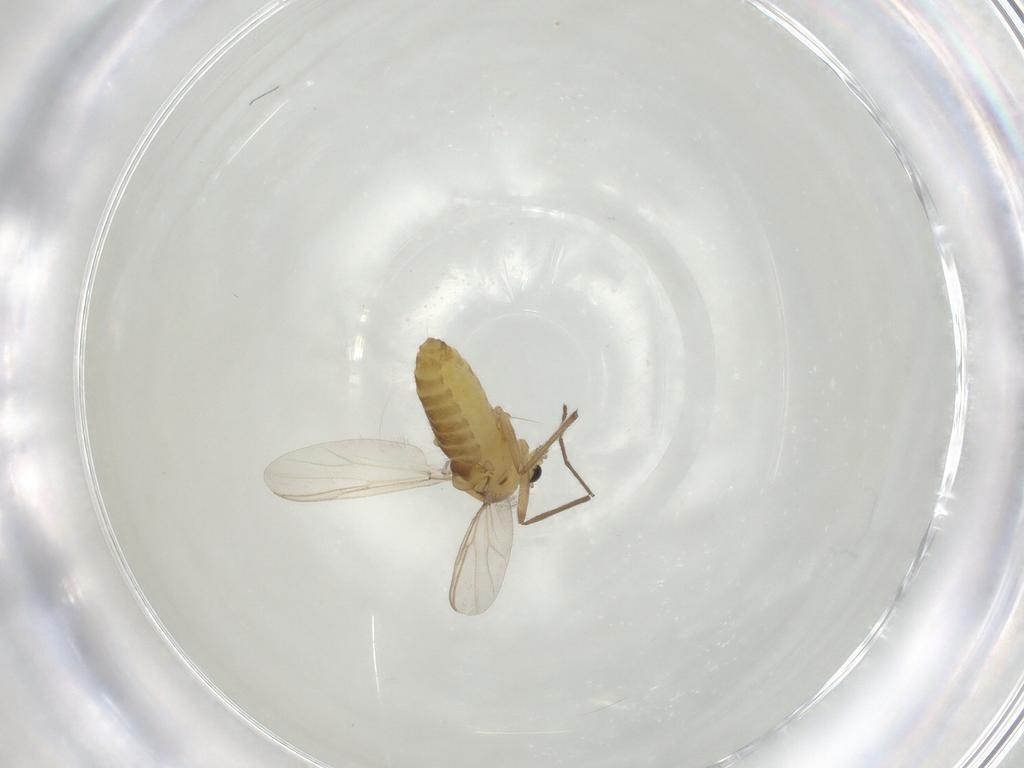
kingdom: Animalia
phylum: Arthropoda
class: Insecta
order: Diptera
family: Chironomidae
